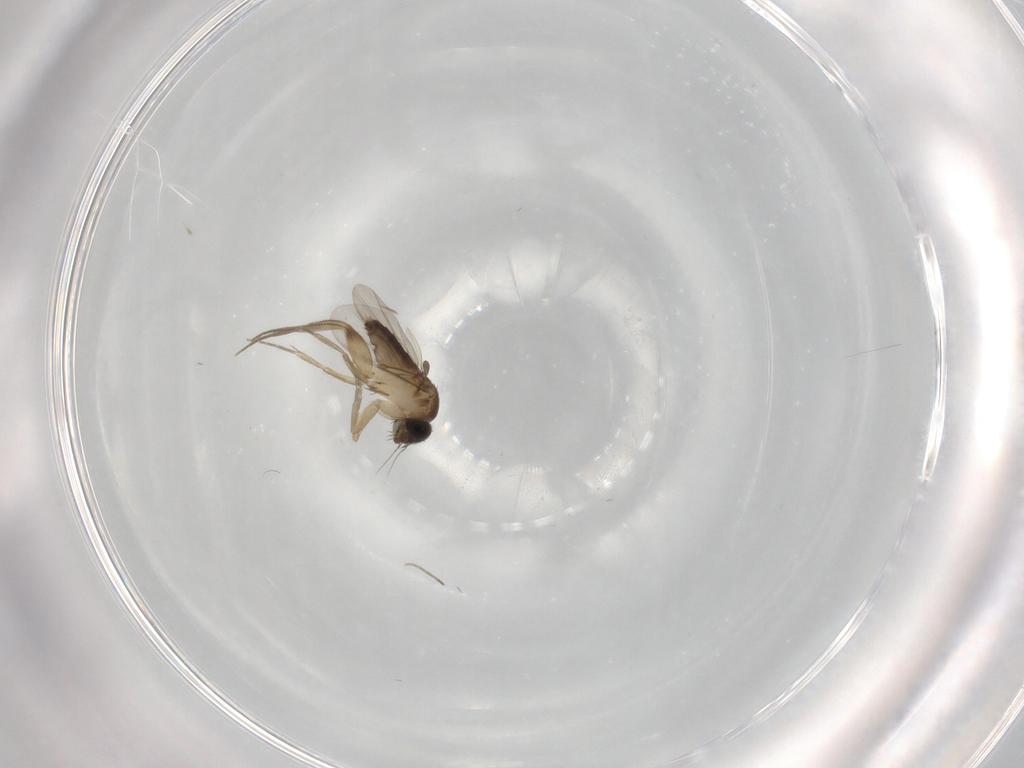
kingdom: Animalia
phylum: Arthropoda
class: Insecta
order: Diptera
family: Phoridae
